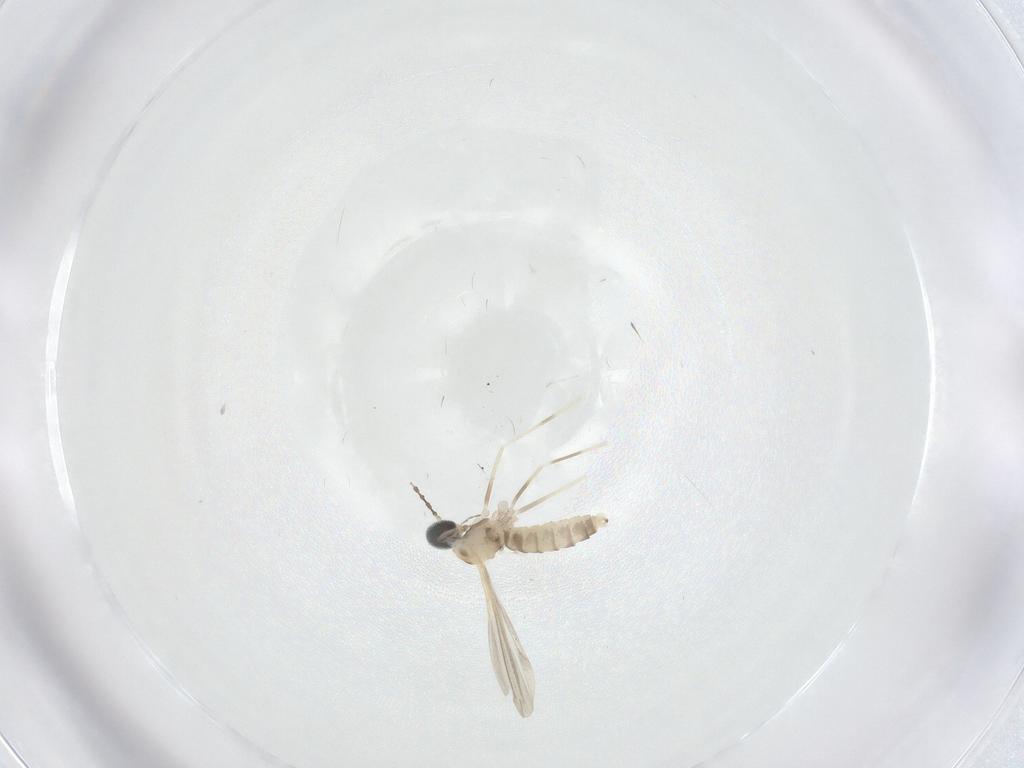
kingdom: Animalia
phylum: Arthropoda
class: Insecta
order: Diptera
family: Cecidomyiidae
